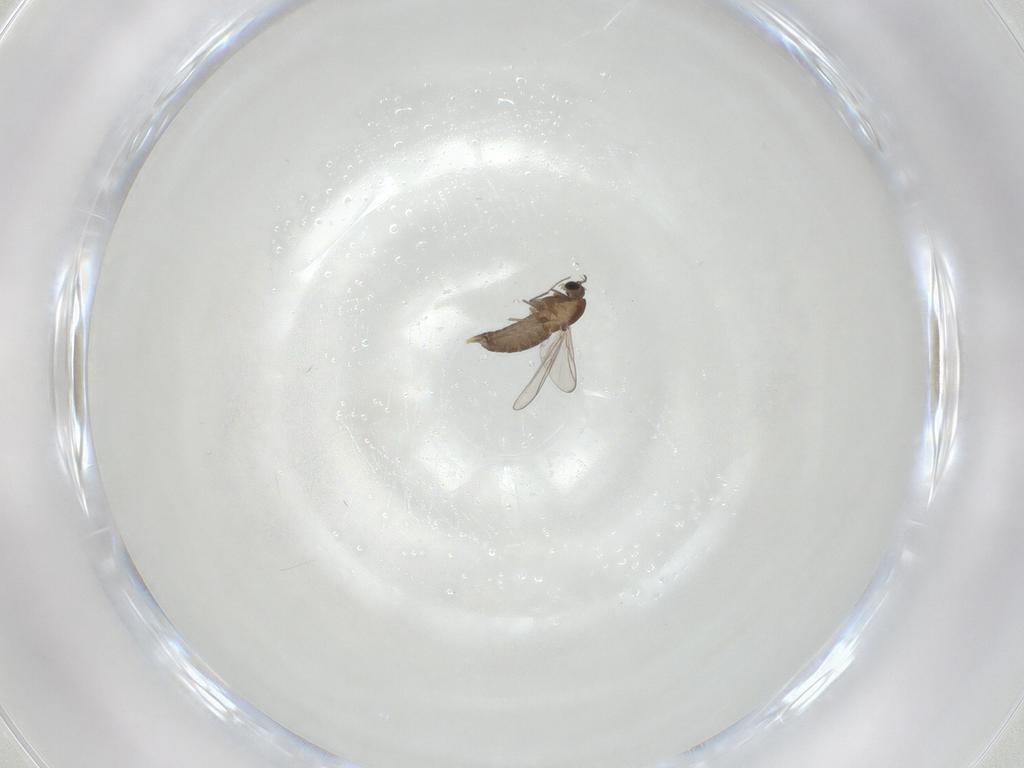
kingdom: Animalia
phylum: Arthropoda
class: Insecta
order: Diptera
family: Chironomidae
